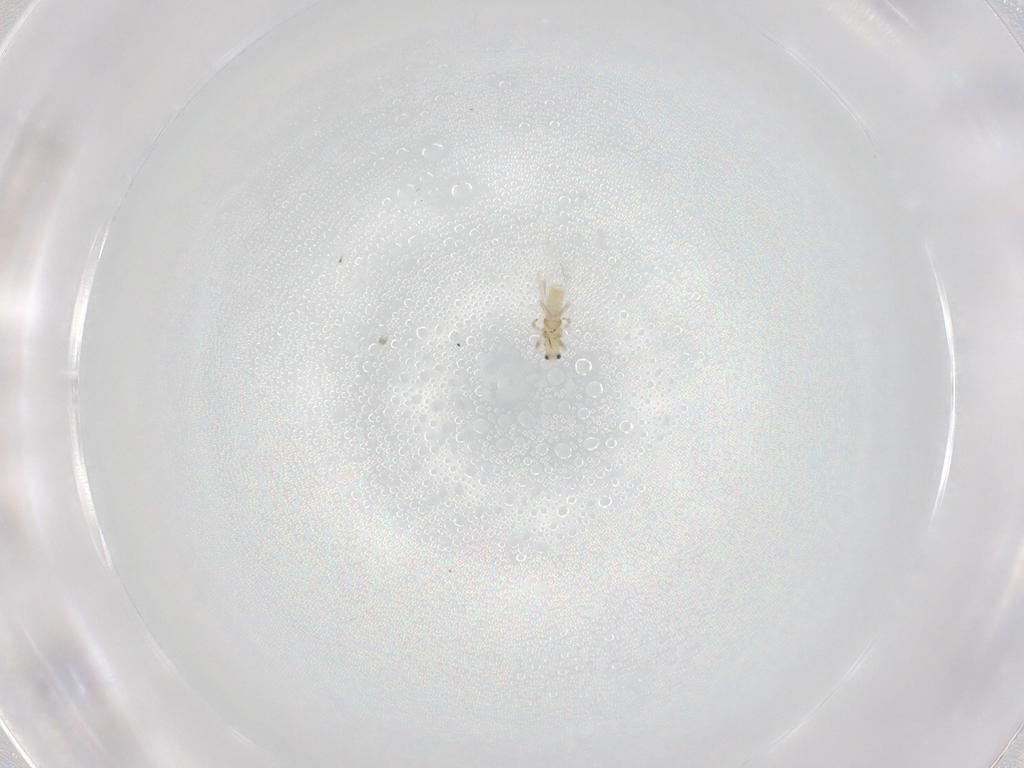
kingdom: Animalia
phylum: Arthropoda
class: Insecta
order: Thysanoptera
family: Thripidae
